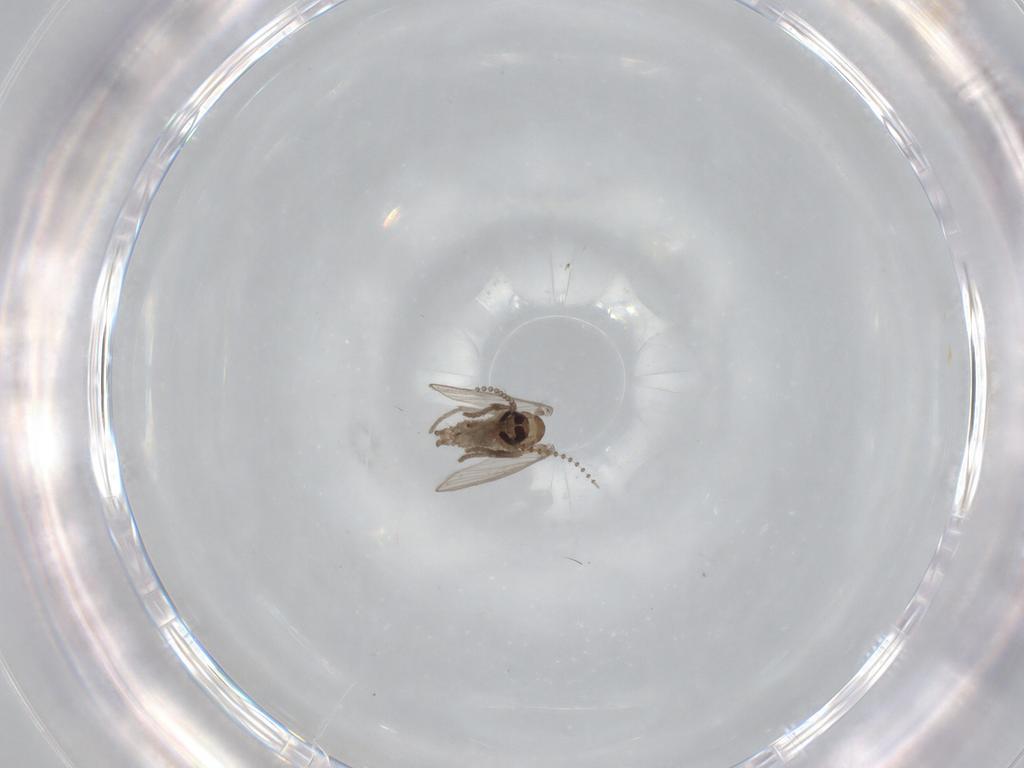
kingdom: Animalia
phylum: Arthropoda
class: Insecta
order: Diptera
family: Psychodidae
